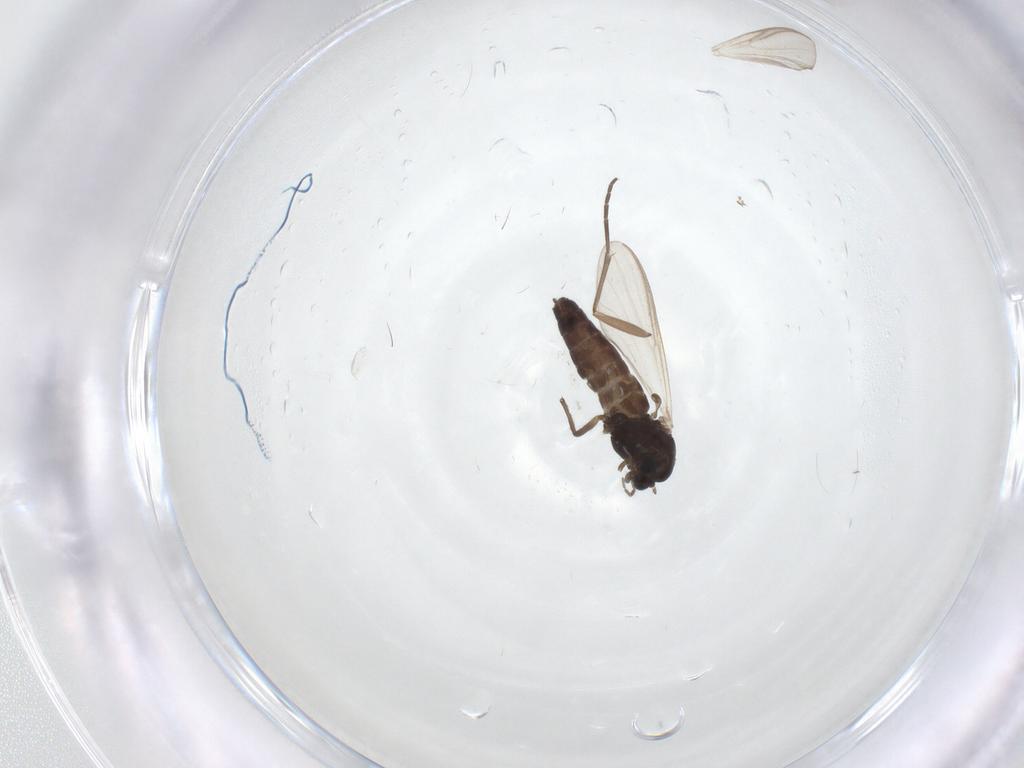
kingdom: Animalia
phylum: Arthropoda
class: Insecta
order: Diptera
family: Sciaridae
